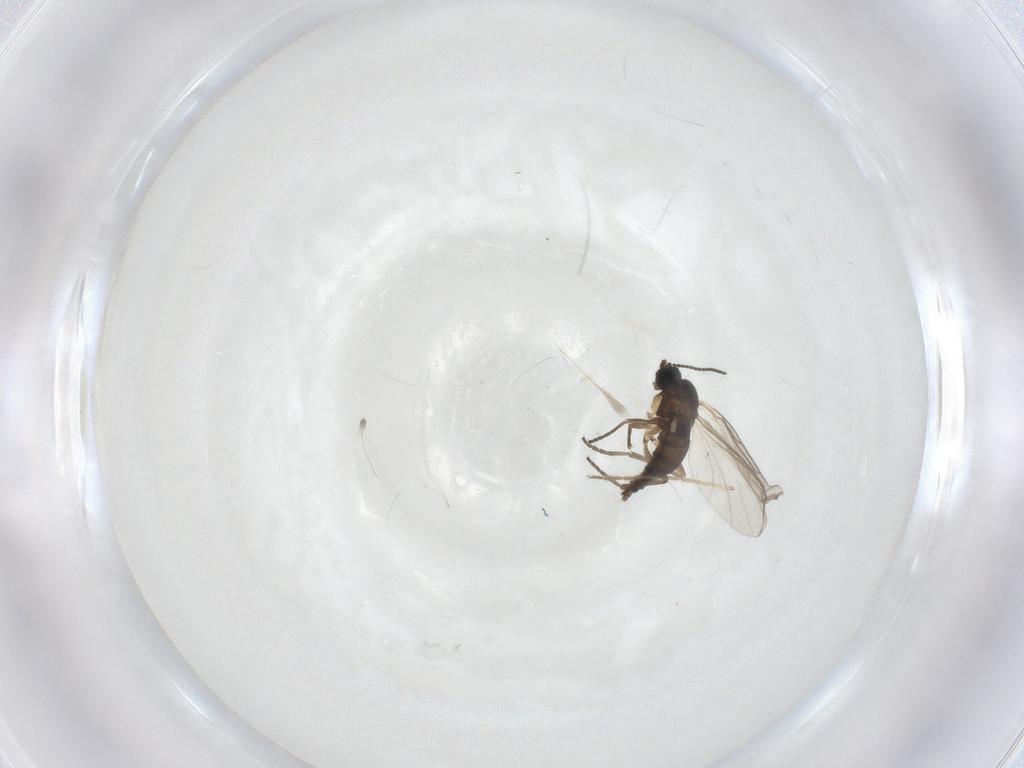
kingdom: Animalia
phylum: Arthropoda
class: Insecta
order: Diptera
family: Sciaridae
